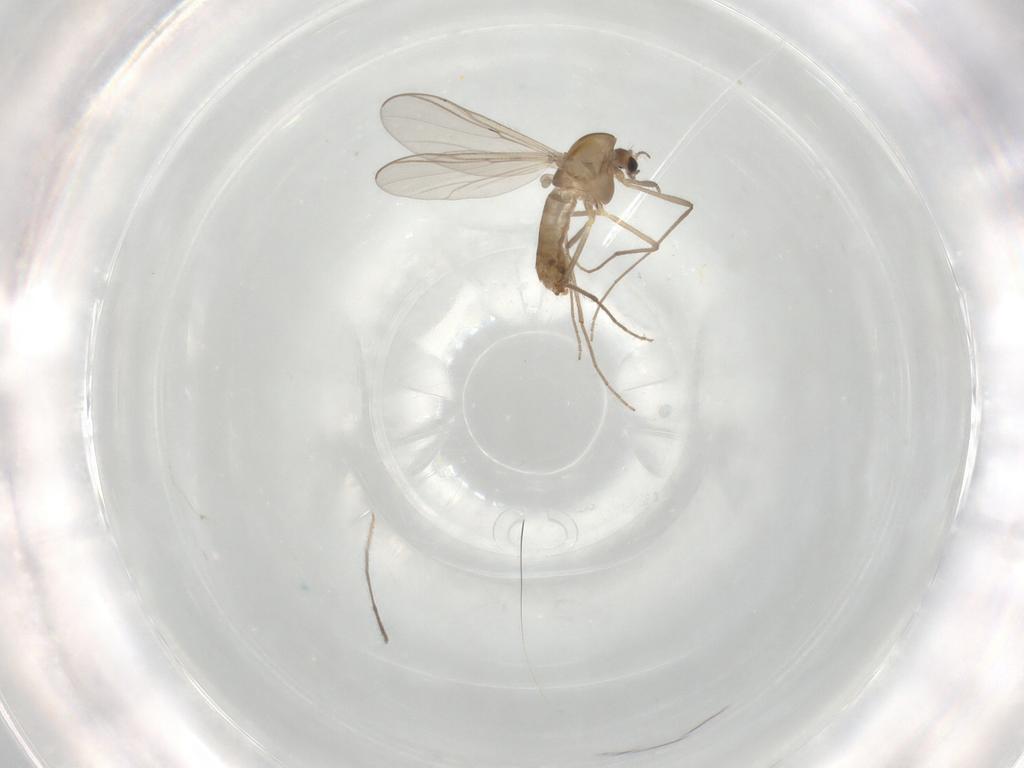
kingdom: Animalia
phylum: Arthropoda
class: Insecta
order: Diptera
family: Chironomidae
